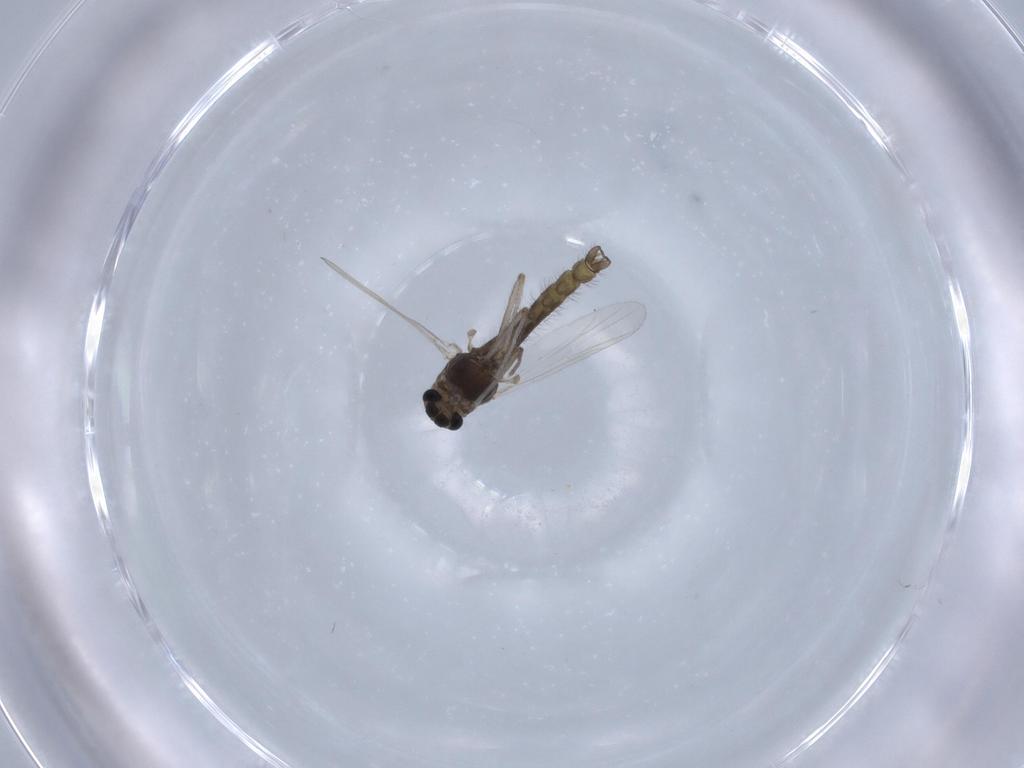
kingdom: Animalia
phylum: Arthropoda
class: Insecta
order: Diptera
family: Chironomidae
